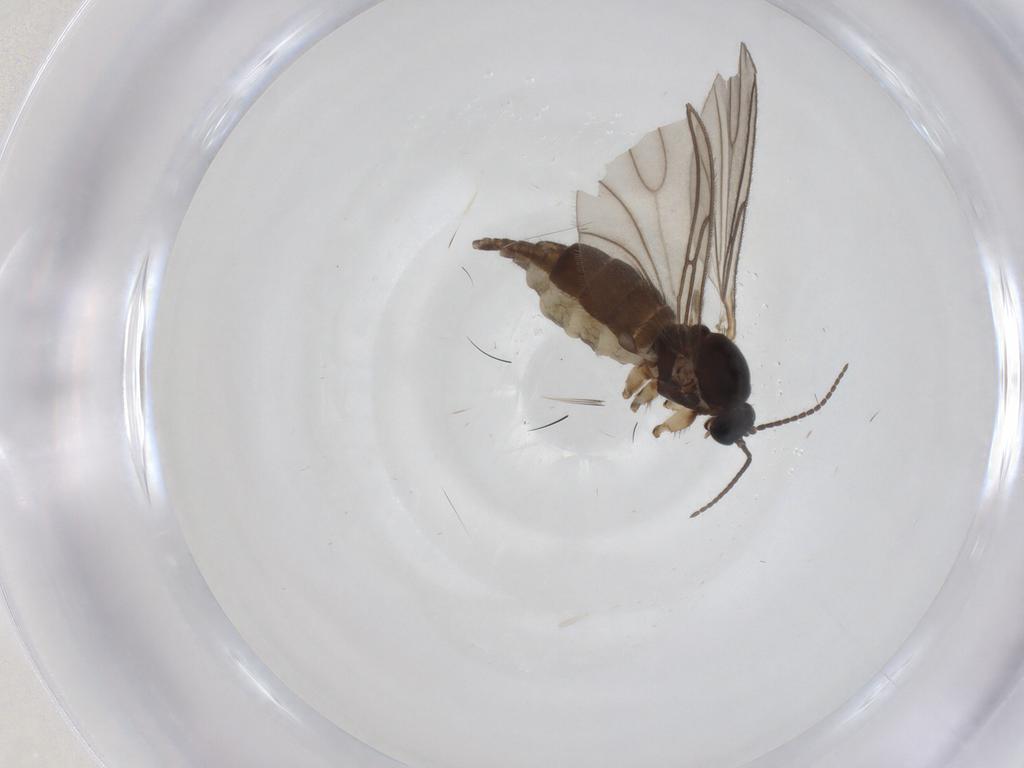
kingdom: Animalia
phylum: Arthropoda
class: Insecta
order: Diptera
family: Sciaridae
